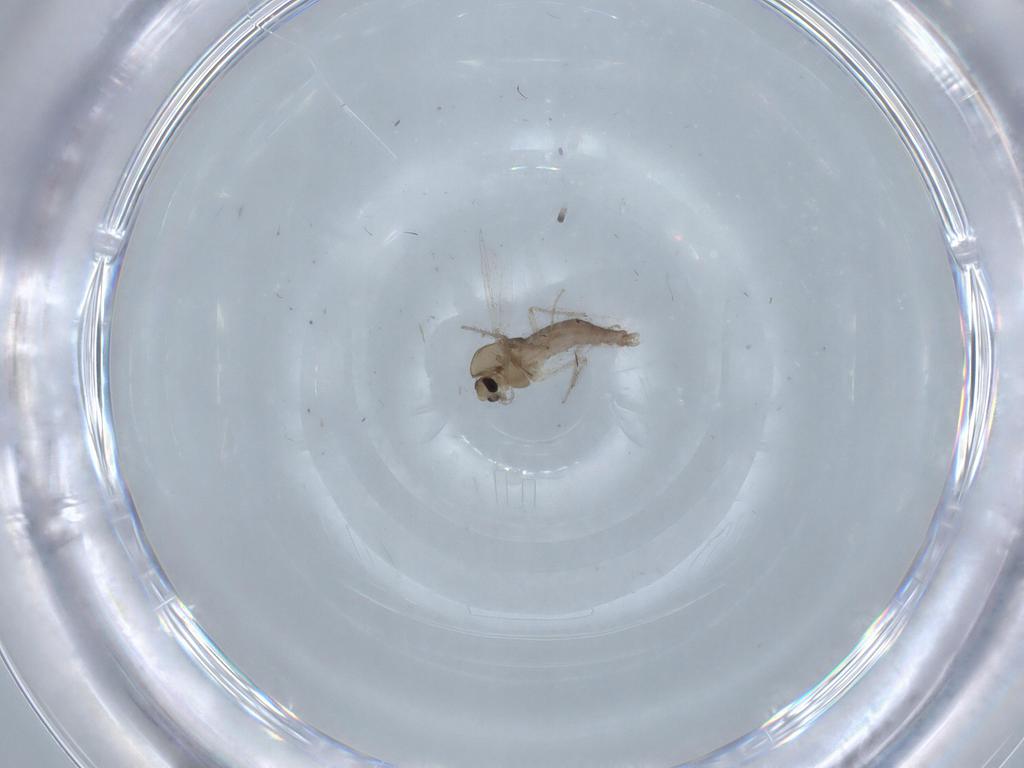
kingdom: Animalia
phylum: Arthropoda
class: Insecta
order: Diptera
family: Chironomidae
